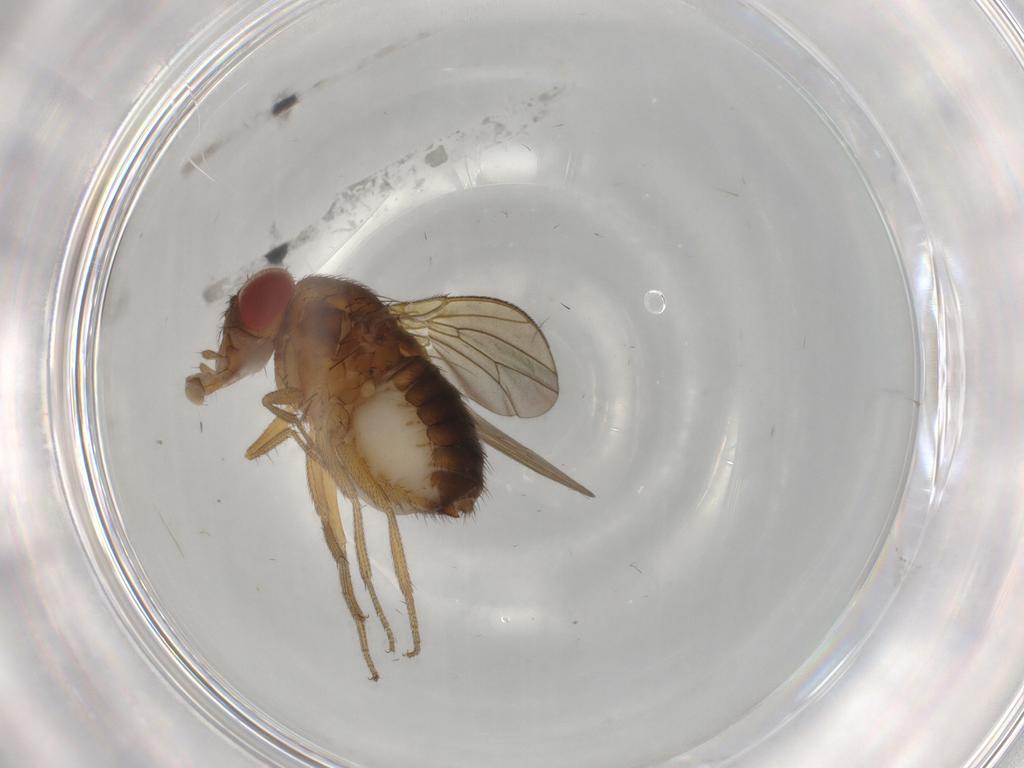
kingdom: Animalia
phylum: Arthropoda
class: Insecta
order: Diptera
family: Drosophilidae
